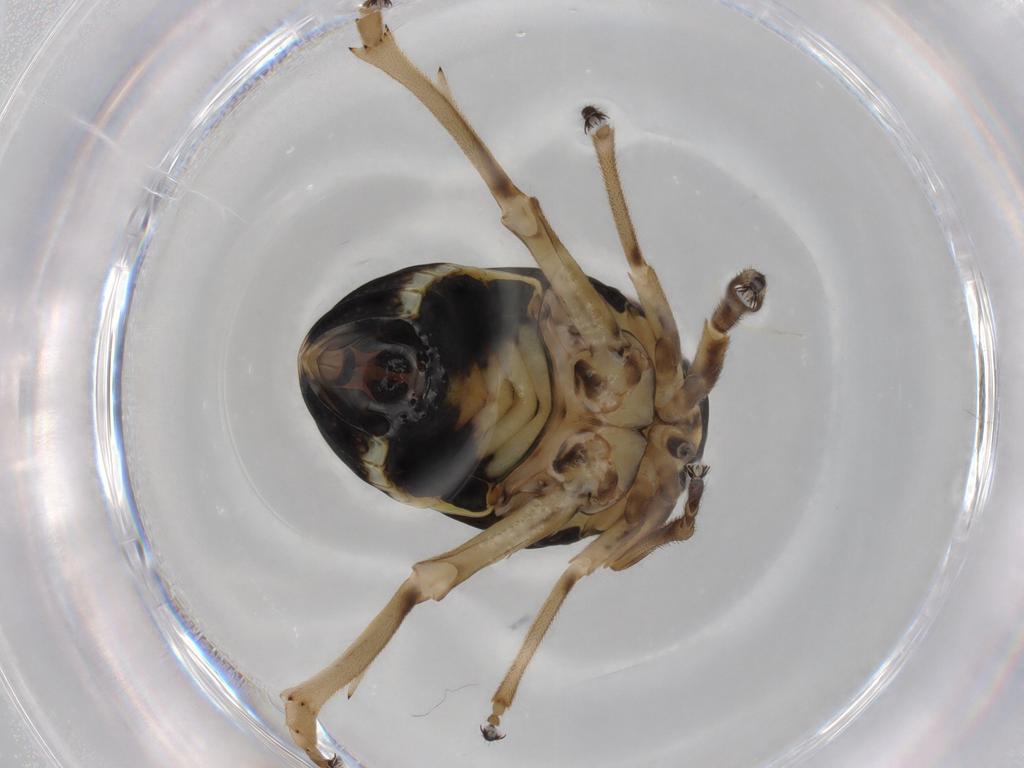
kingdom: Animalia
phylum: Arthropoda
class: Insecta
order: Hemiptera
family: Caliscelidae
